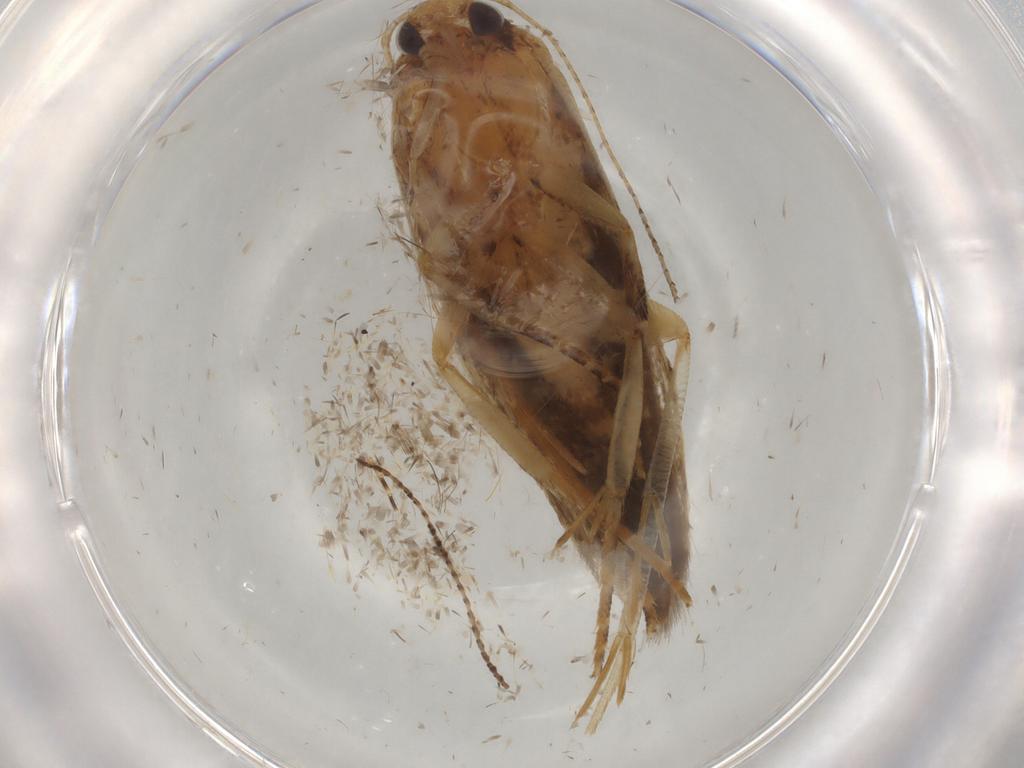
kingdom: Animalia
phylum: Arthropoda
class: Insecta
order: Lepidoptera
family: Gelechiidae
